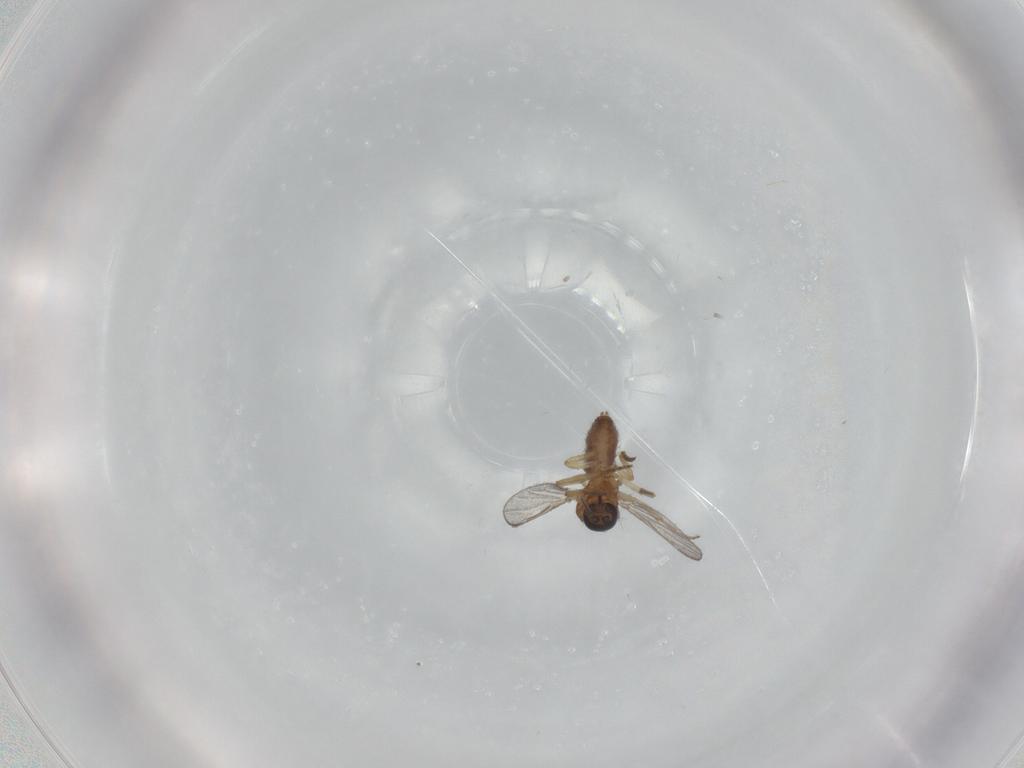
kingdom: Animalia
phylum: Arthropoda
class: Insecta
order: Diptera
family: Ceratopogonidae
